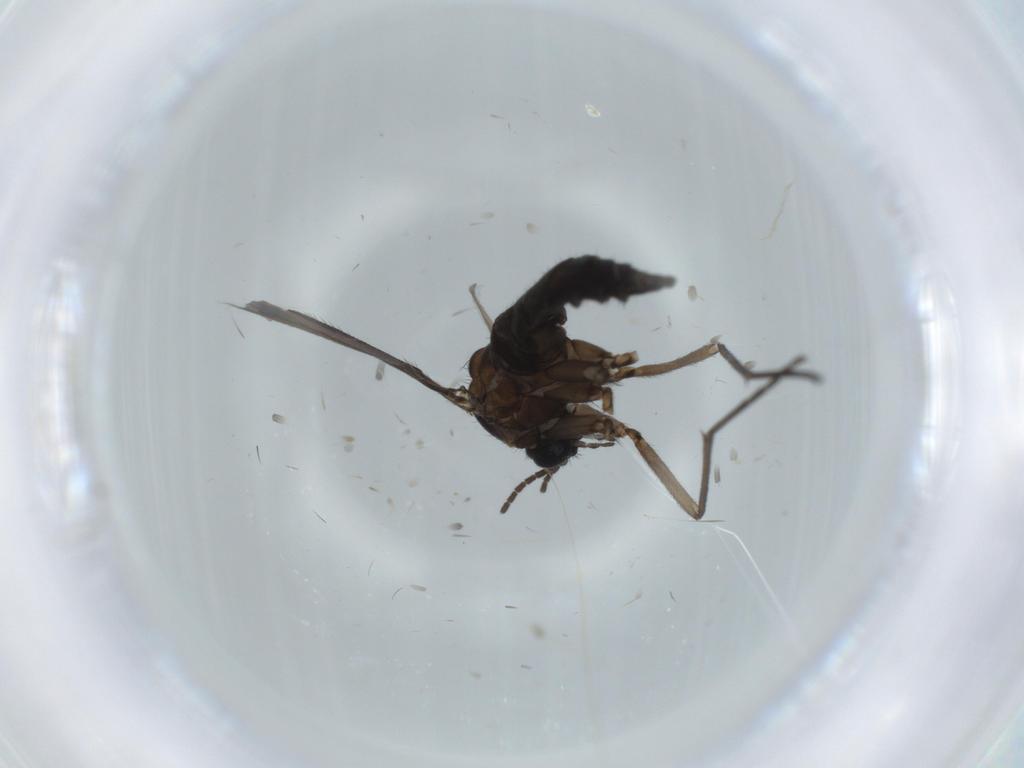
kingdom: Animalia
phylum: Arthropoda
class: Insecta
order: Diptera
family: Sciaridae
